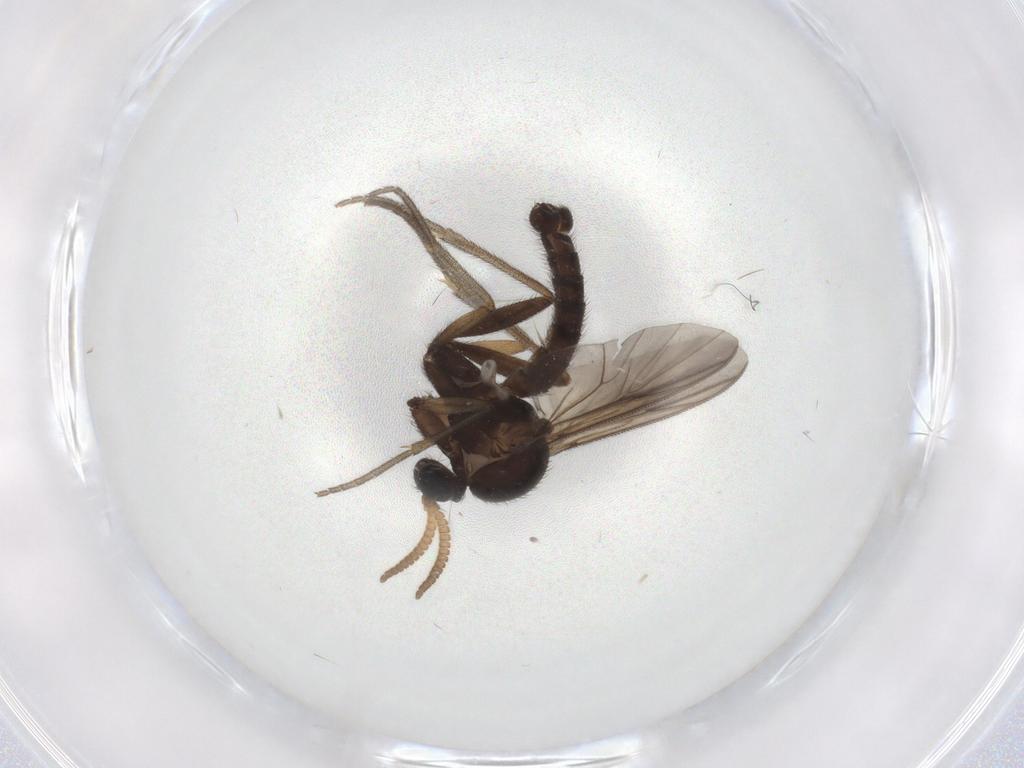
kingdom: Animalia
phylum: Arthropoda
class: Insecta
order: Diptera
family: Mycetophilidae
